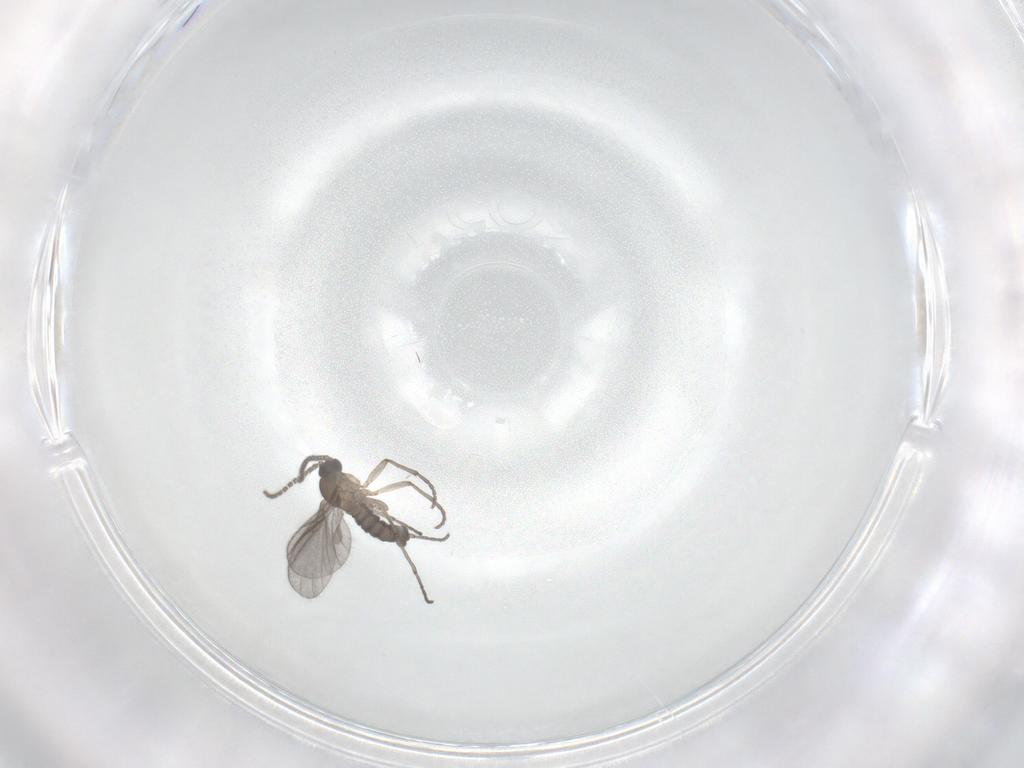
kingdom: Animalia
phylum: Arthropoda
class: Insecta
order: Diptera
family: Sciaridae
